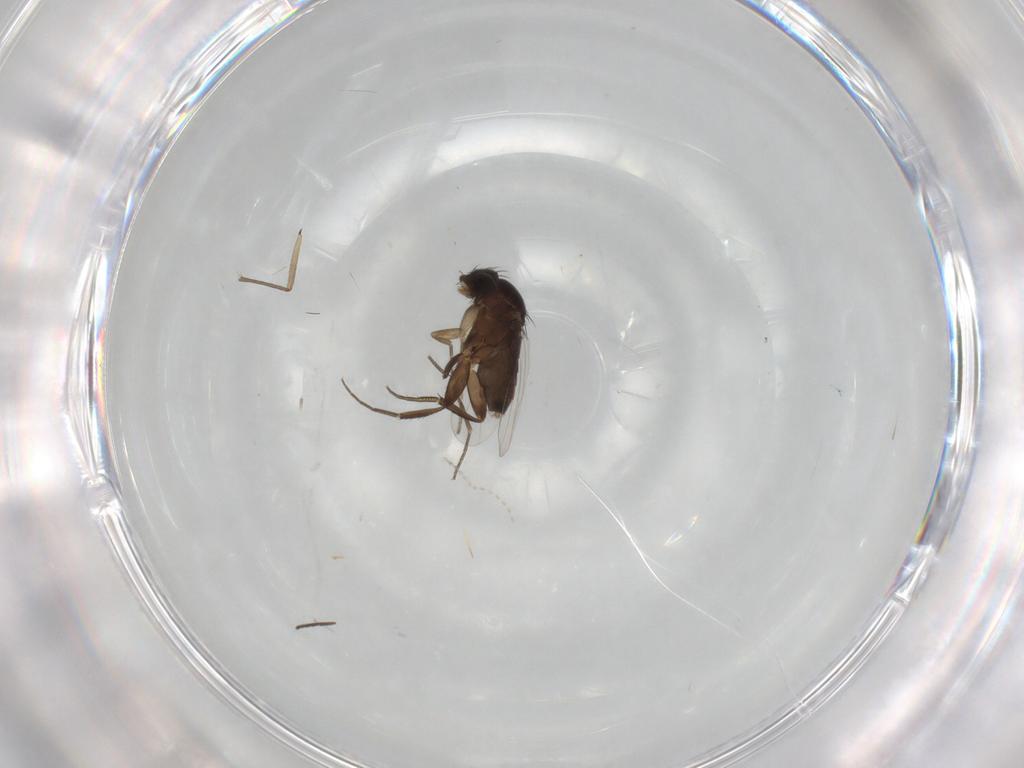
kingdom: Animalia
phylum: Arthropoda
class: Insecta
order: Diptera
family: Phoridae
